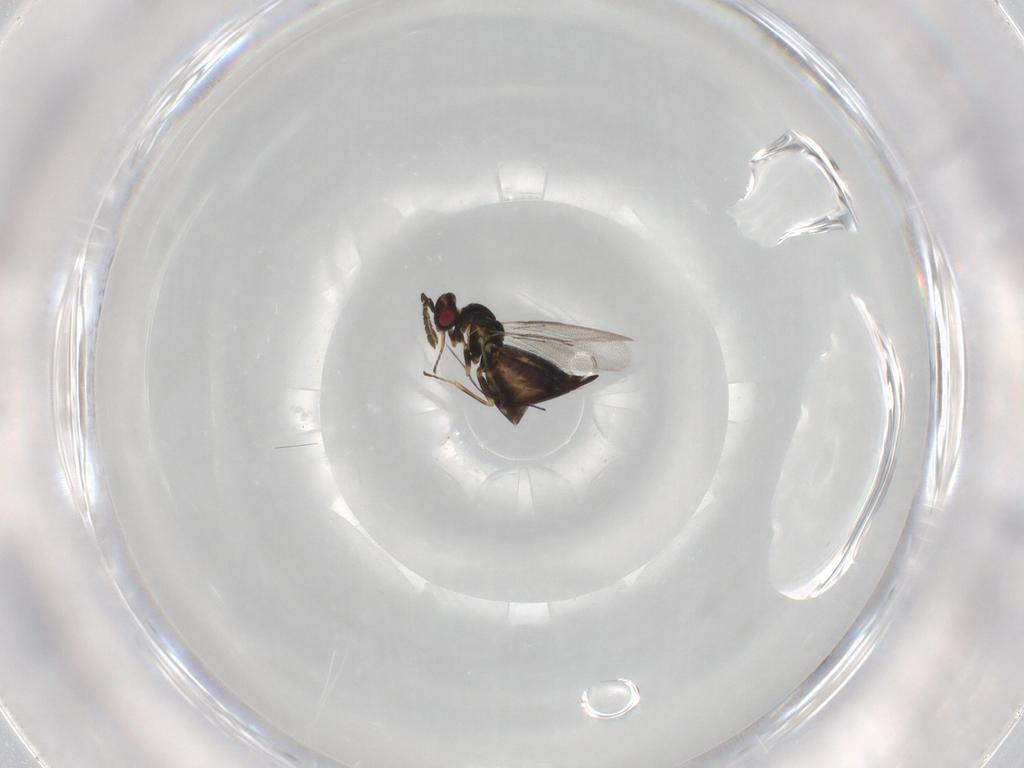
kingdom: Animalia
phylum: Arthropoda
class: Insecta
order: Hymenoptera
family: Eulophidae
